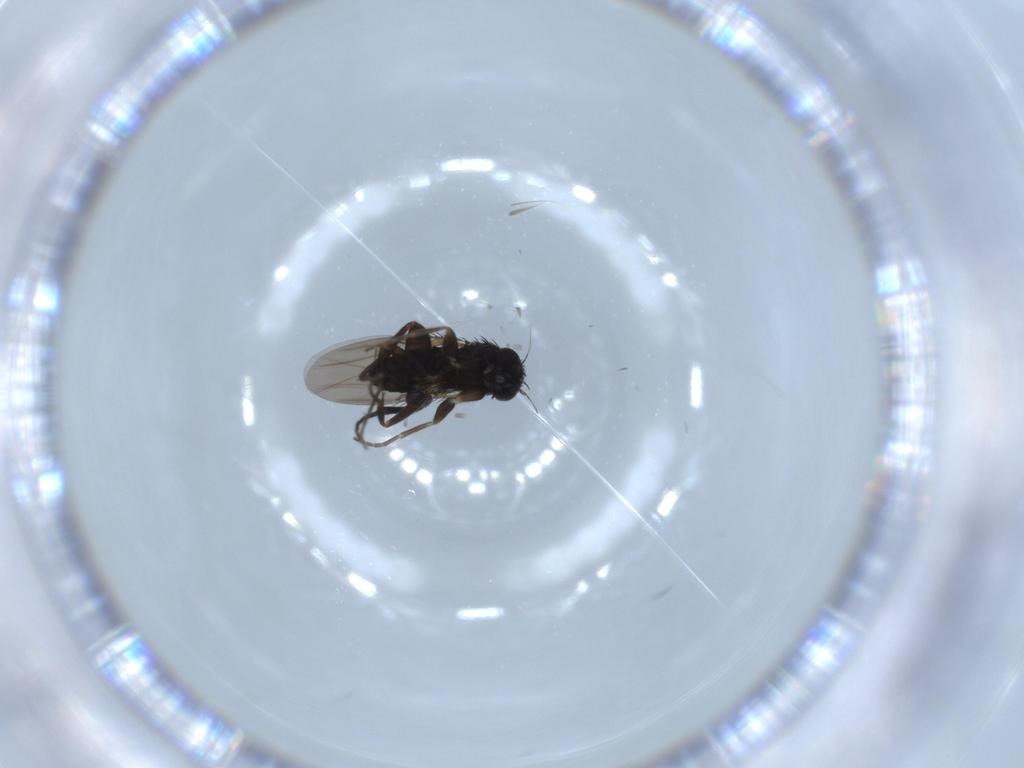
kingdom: Animalia
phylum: Arthropoda
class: Insecta
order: Diptera
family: Phoridae
